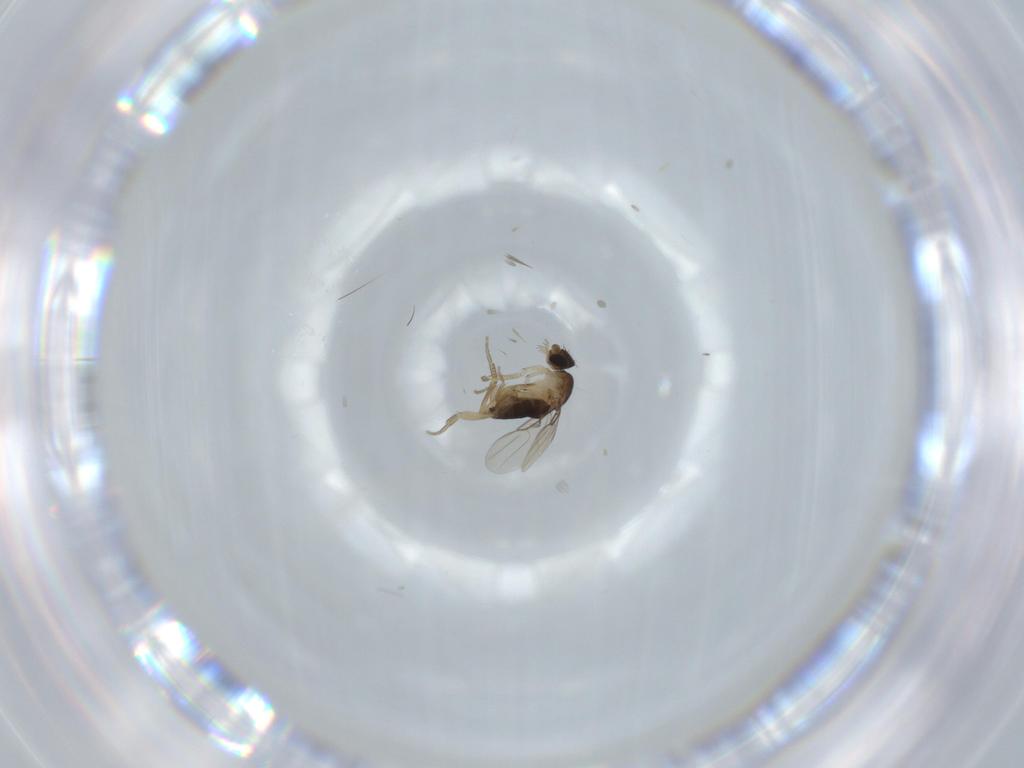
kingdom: Animalia
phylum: Arthropoda
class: Insecta
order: Diptera
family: Phoridae
